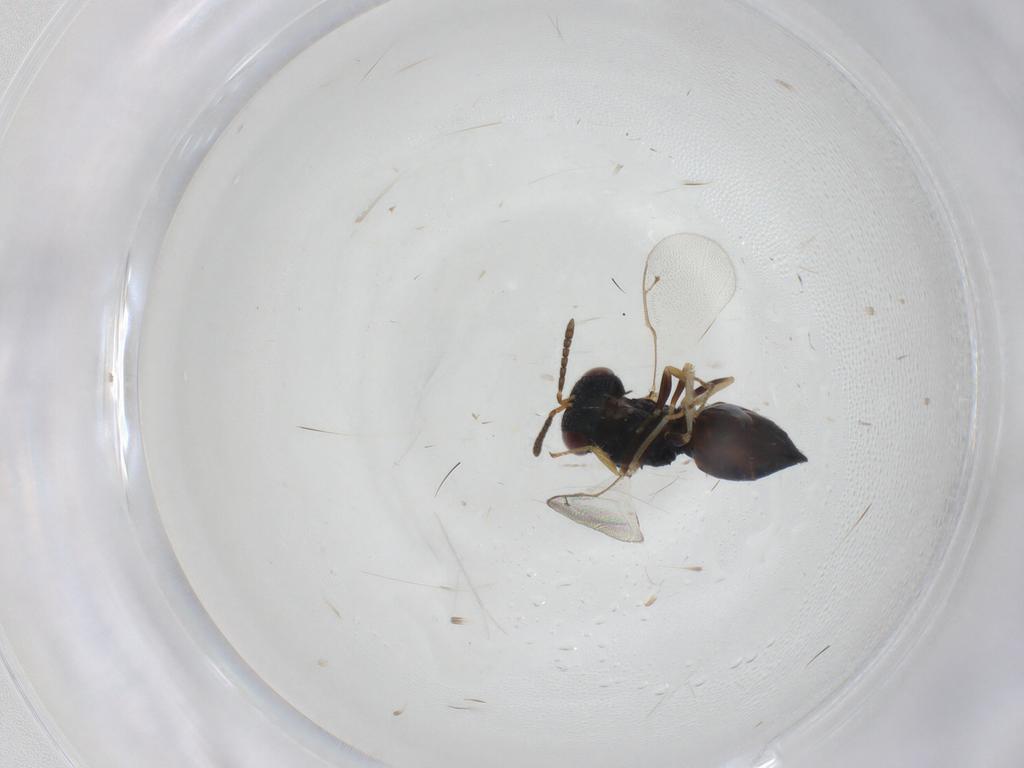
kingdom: Animalia
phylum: Arthropoda
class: Insecta
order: Hymenoptera
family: Pteromalidae
